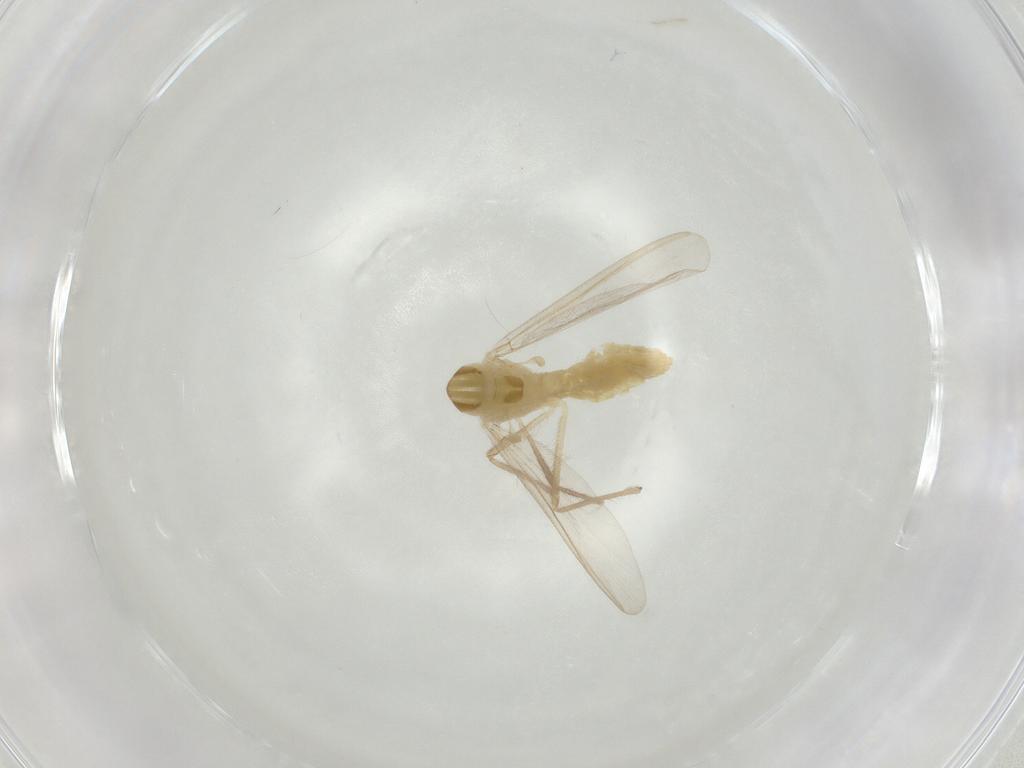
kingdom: Animalia
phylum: Arthropoda
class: Insecta
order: Diptera
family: Chironomidae
